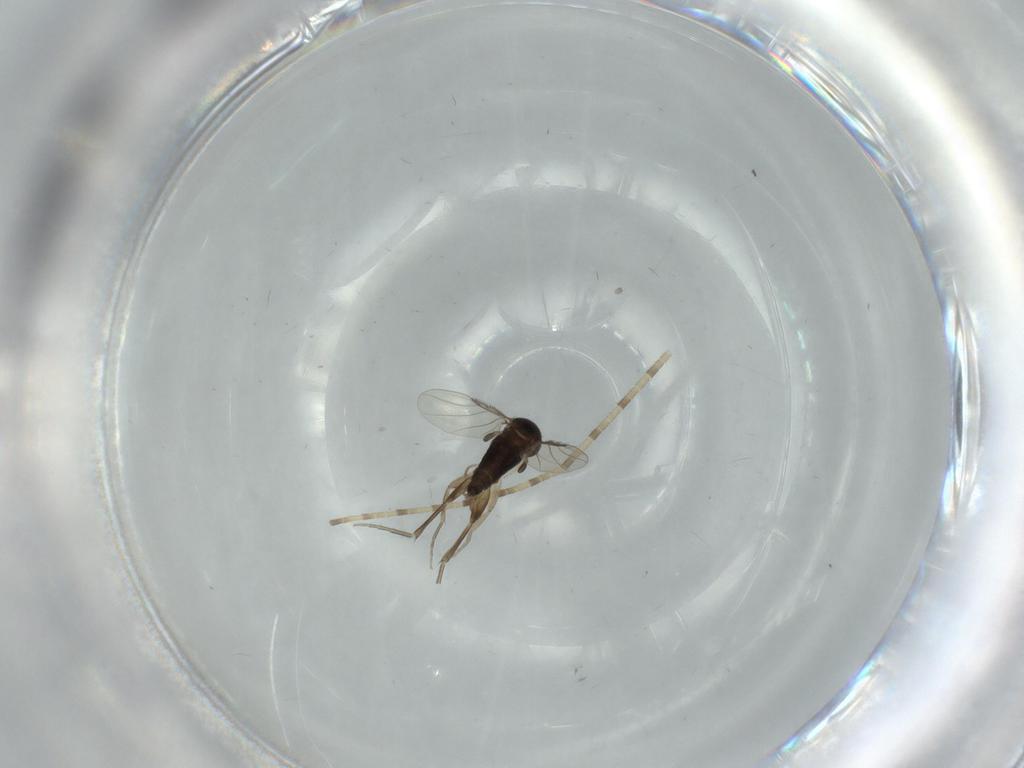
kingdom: Animalia
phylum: Arthropoda
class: Insecta
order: Diptera
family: Phoridae
